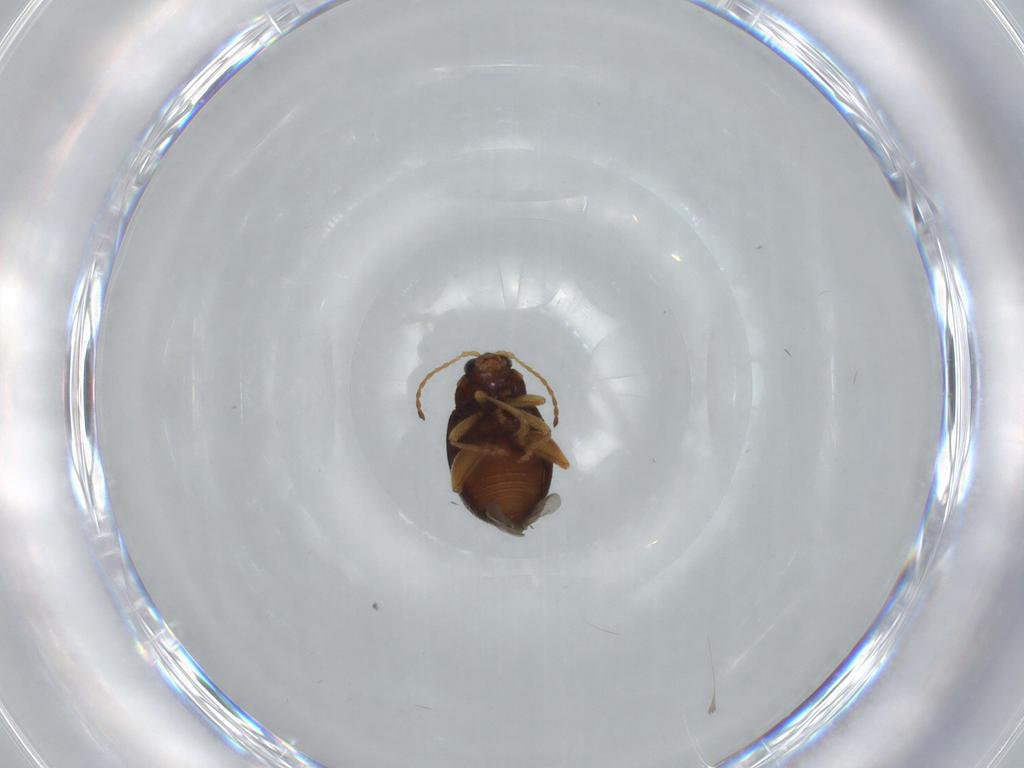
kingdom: Animalia
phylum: Arthropoda
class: Insecta
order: Coleoptera
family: Chrysomelidae
